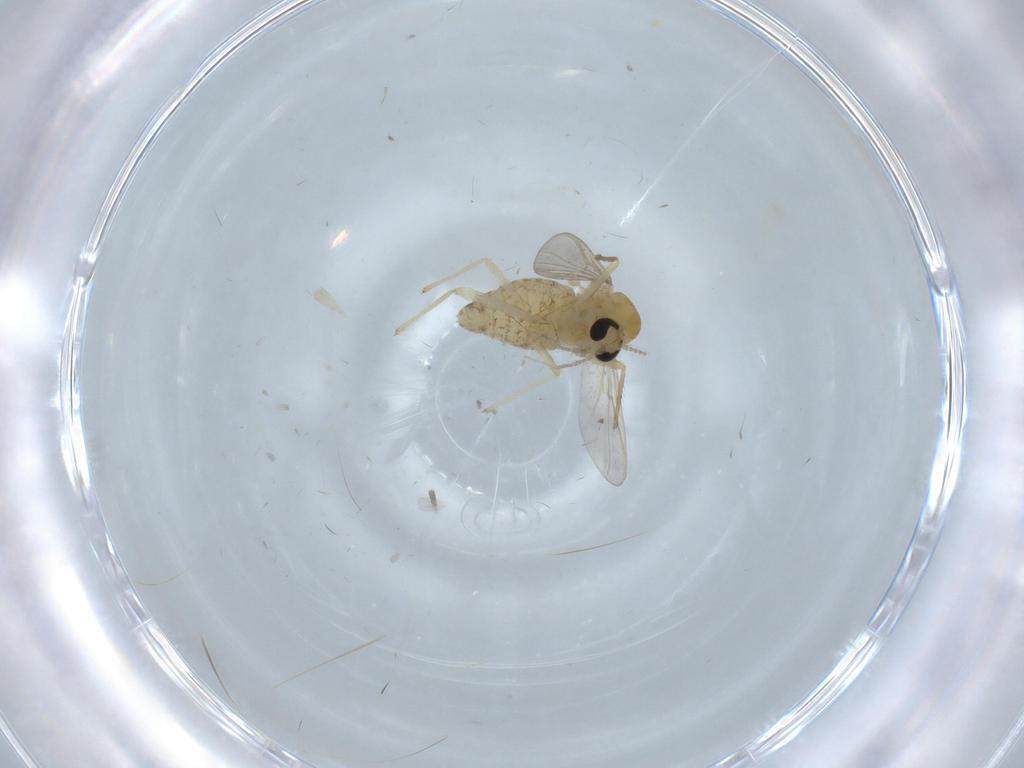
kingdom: Animalia
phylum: Arthropoda
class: Insecta
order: Diptera
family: Chironomidae
